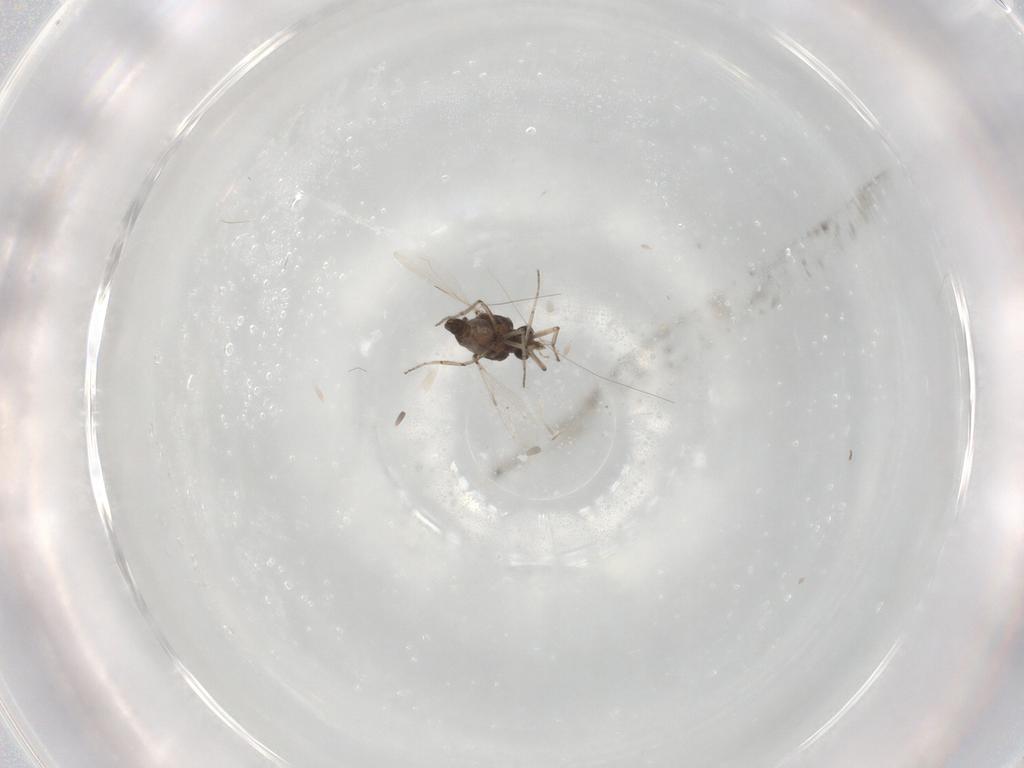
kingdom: Animalia
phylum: Arthropoda
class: Insecta
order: Diptera
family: Ceratopogonidae
